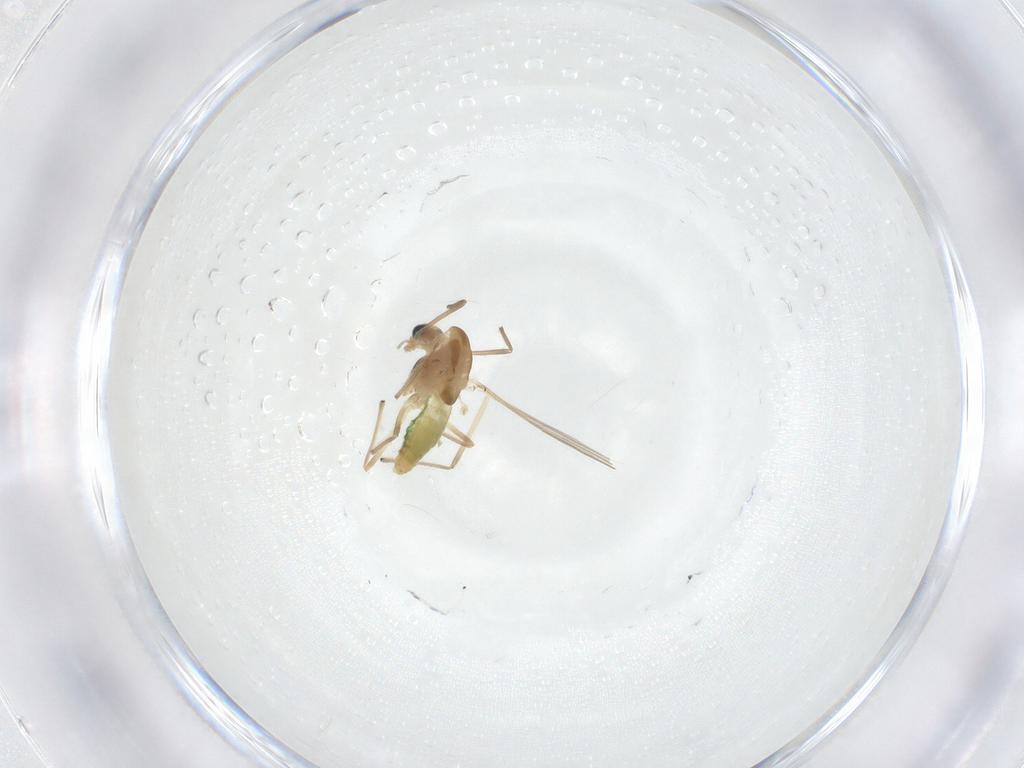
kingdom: Animalia
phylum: Arthropoda
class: Insecta
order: Diptera
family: Chironomidae
